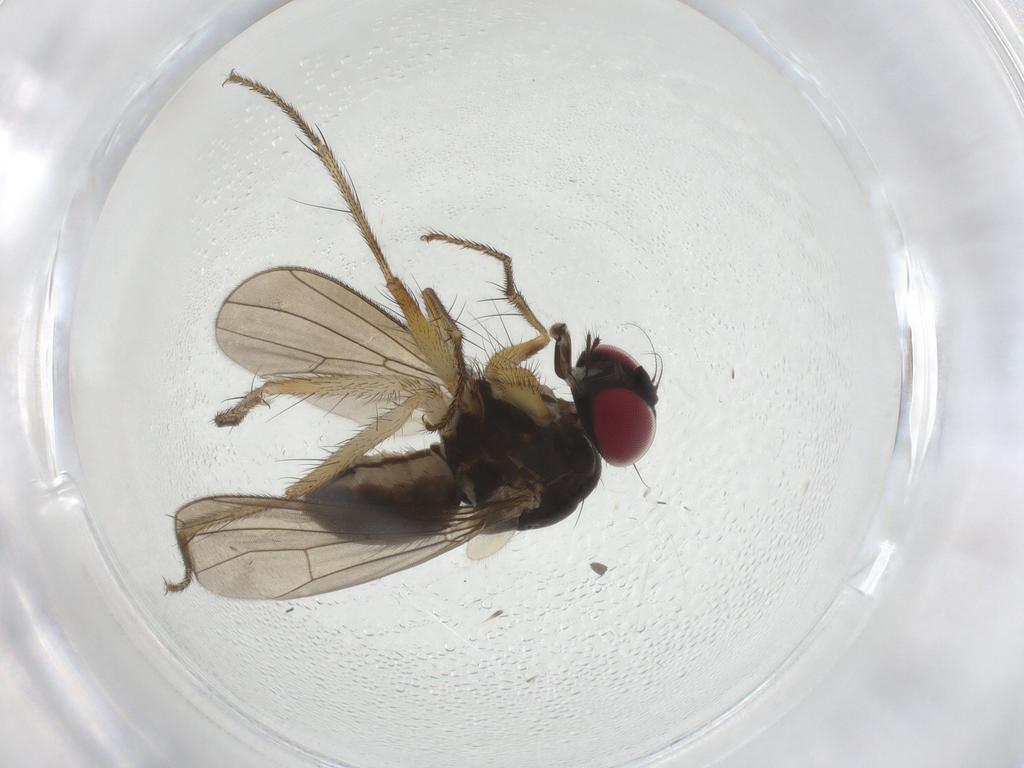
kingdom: Animalia
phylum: Arthropoda
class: Insecta
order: Diptera
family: Anthomyiidae
